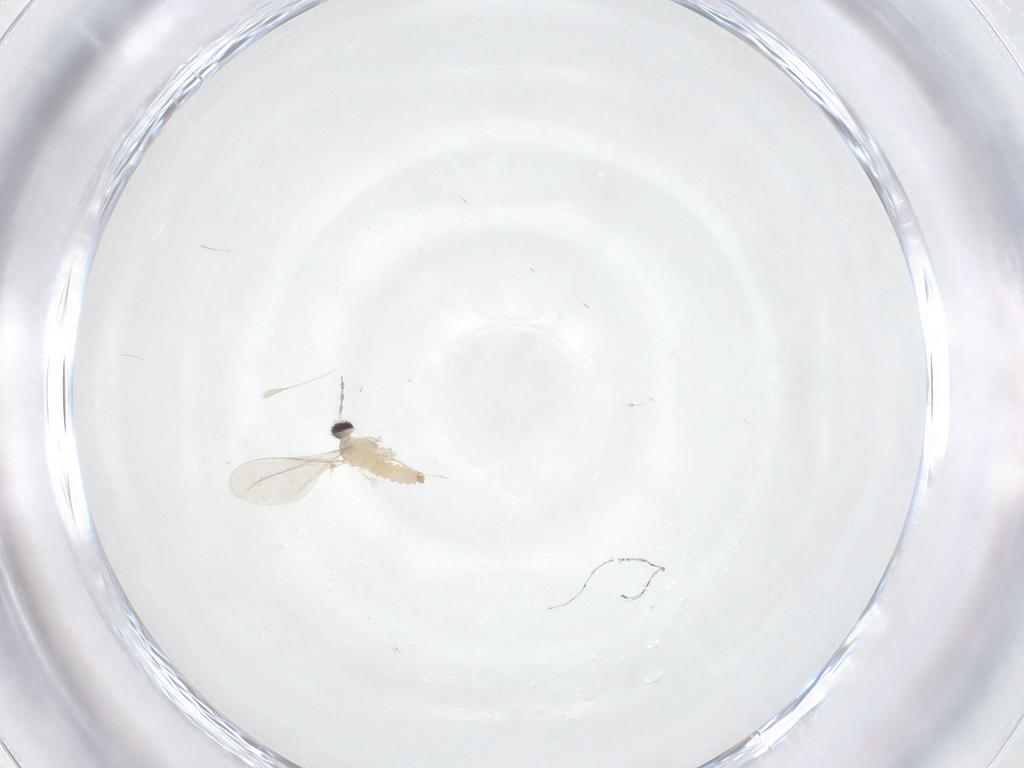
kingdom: Animalia
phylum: Arthropoda
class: Insecta
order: Diptera
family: Cecidomyiidae
